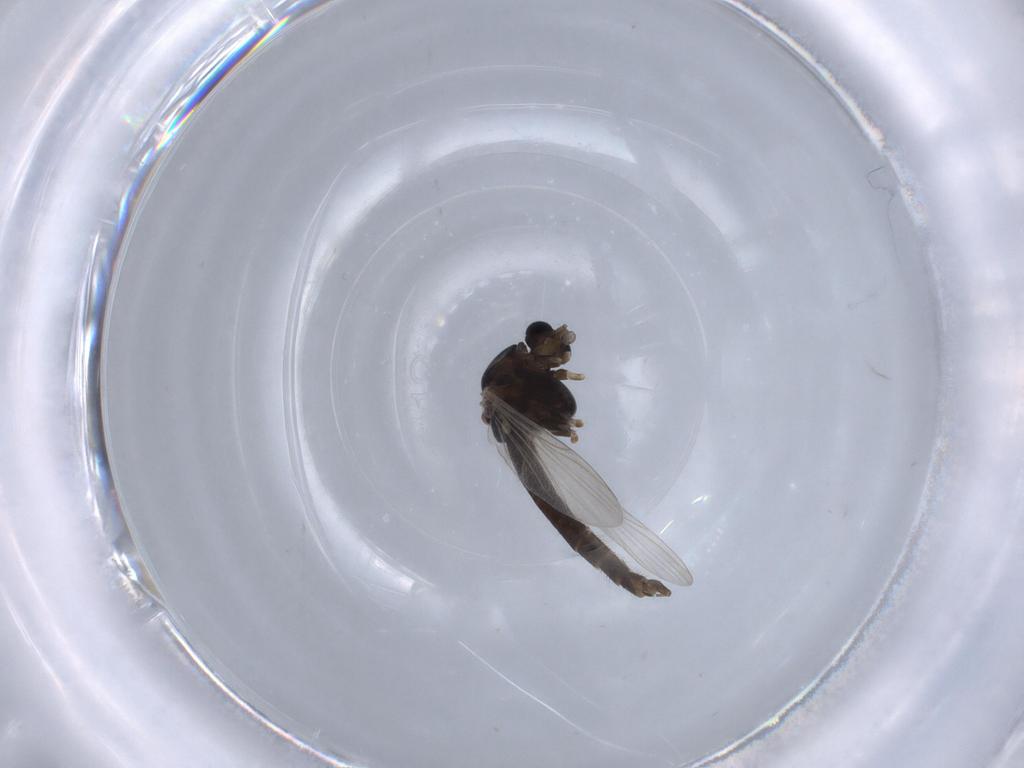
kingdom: Animalia
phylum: Arthropoda
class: Insecta
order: Diptera
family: Chironomidae
